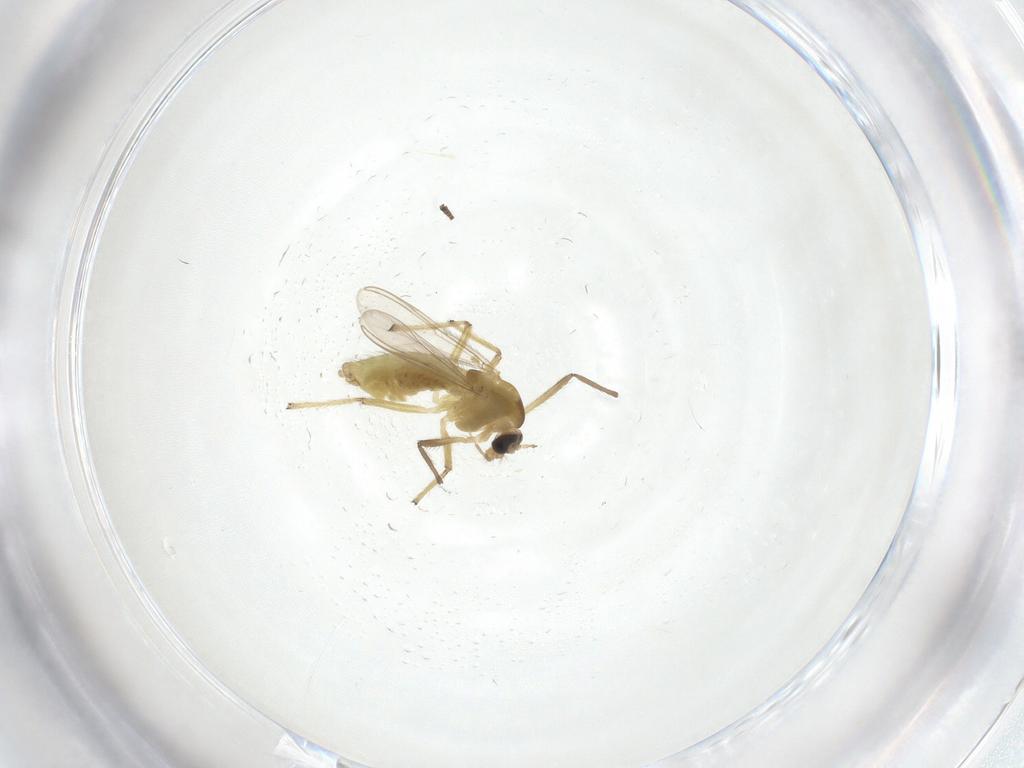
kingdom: Animalia
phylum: Arthropoda
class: Insecta
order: Diptera
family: Chironomidae
